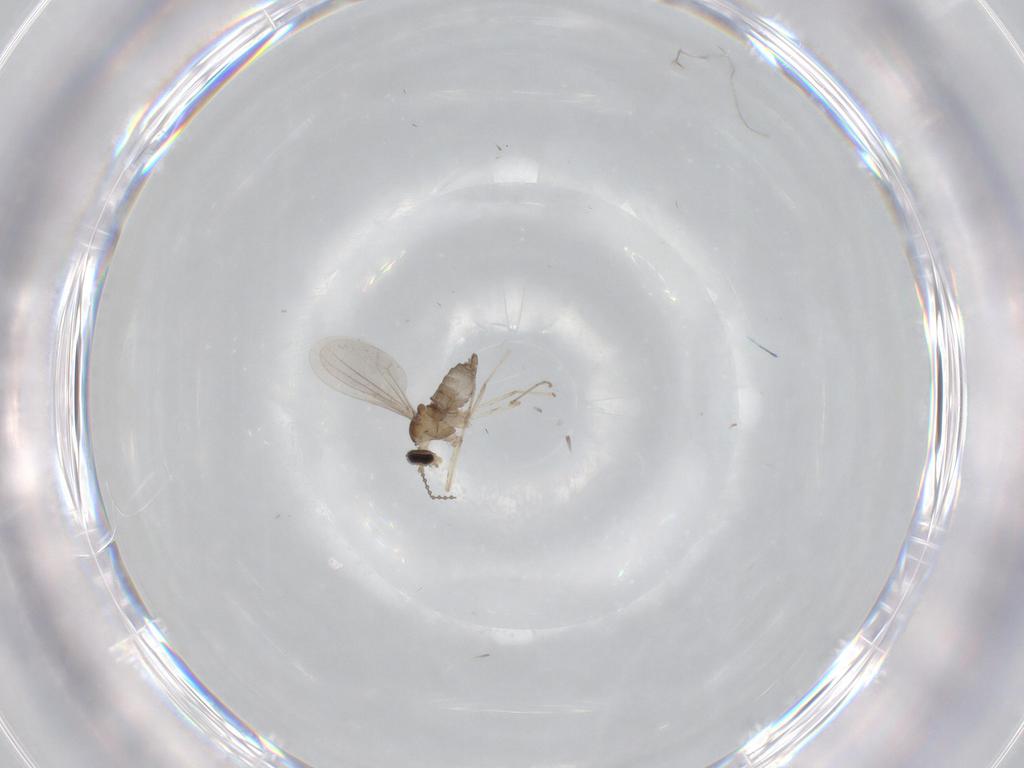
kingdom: Animalia
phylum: Arthropoda
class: Insecta
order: Diptera
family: Cecidomyiidae
